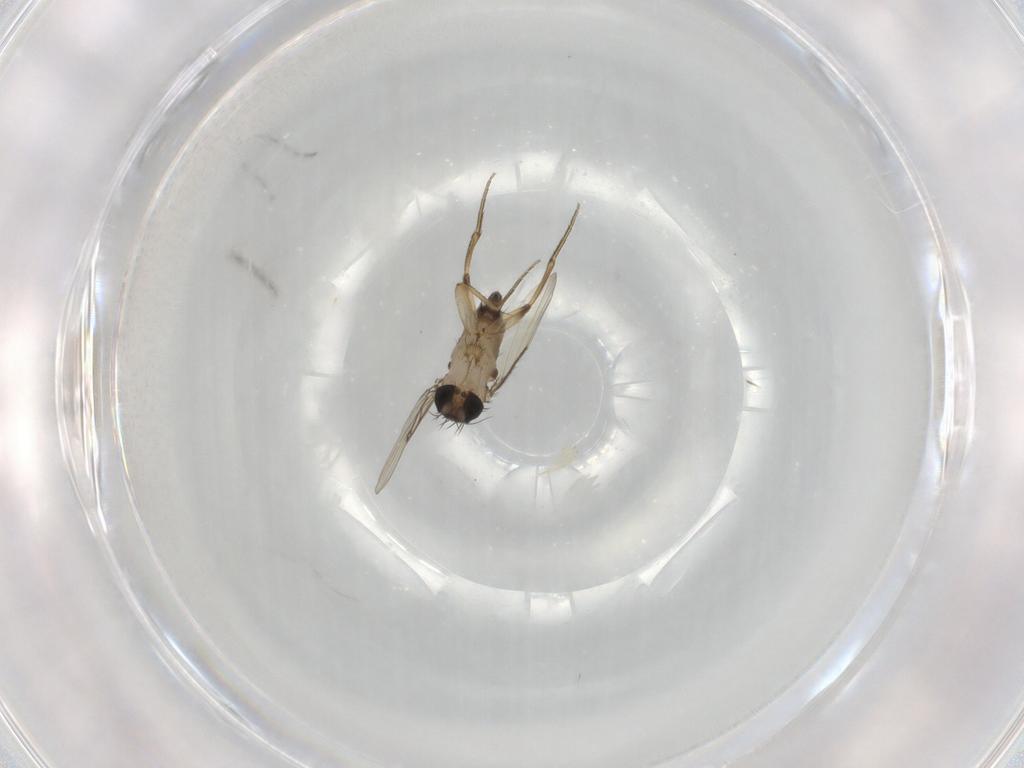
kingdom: Animalia
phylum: Arthropoda
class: Insecta
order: Diptera
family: Phoridae
